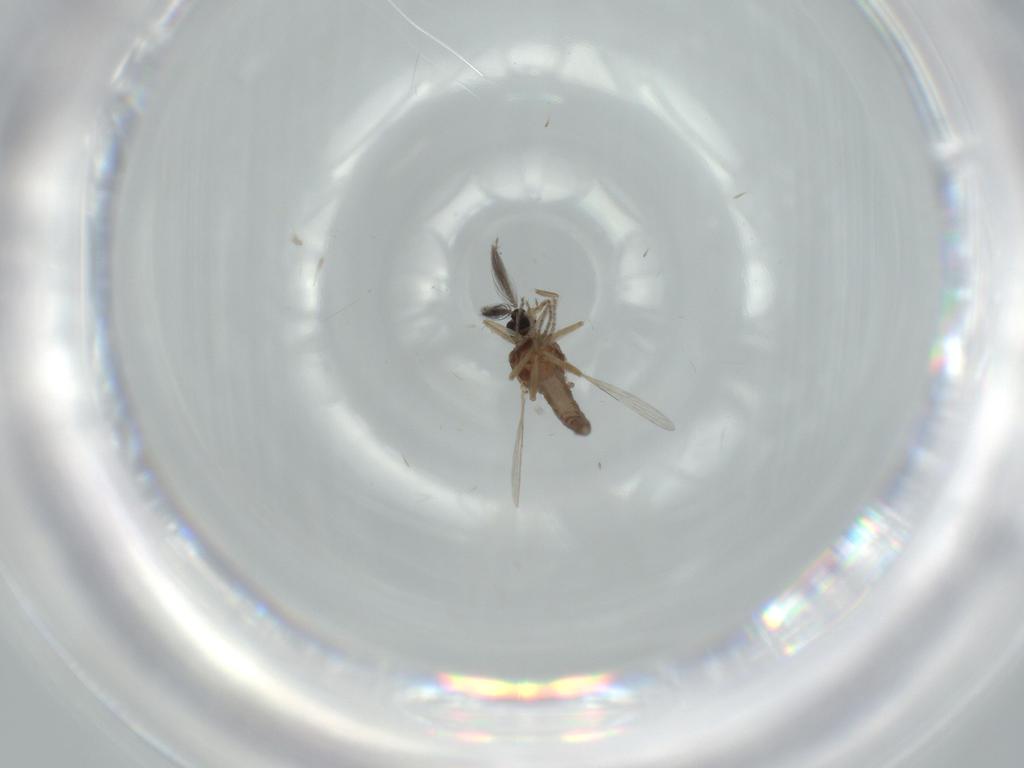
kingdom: Animalia
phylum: Arthropoda
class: Insecta
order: Diptera
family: Ceratopogonidae
